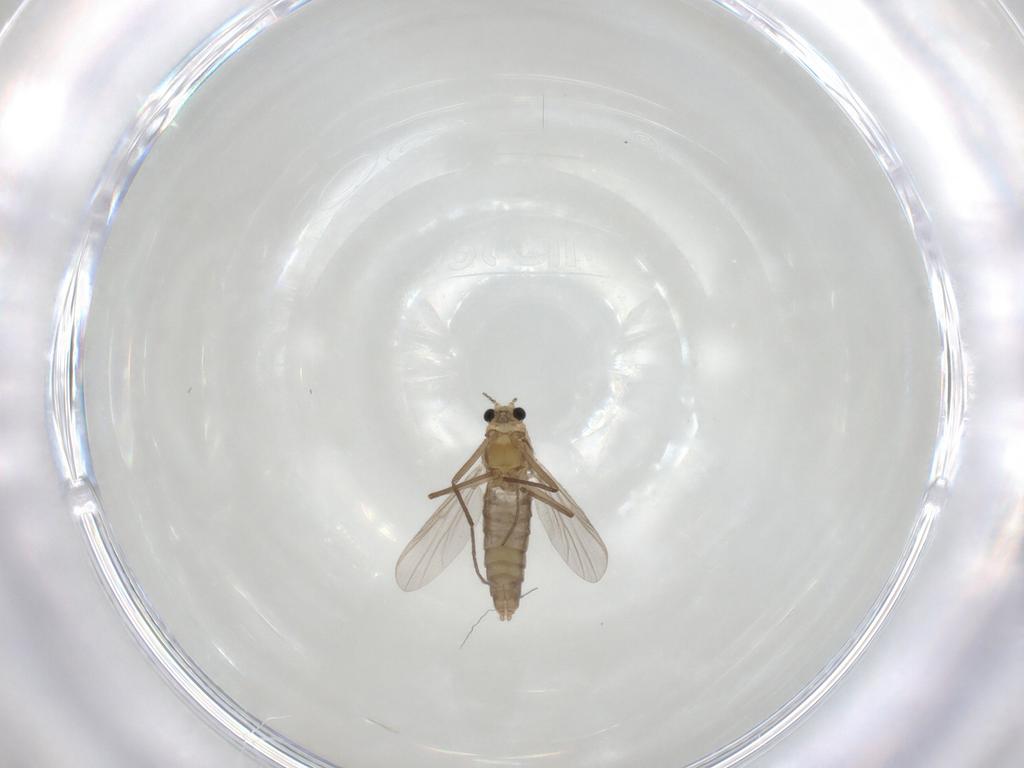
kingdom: Animalia
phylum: Arthropoda
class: Insecta
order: Diptera
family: Chironomidae
